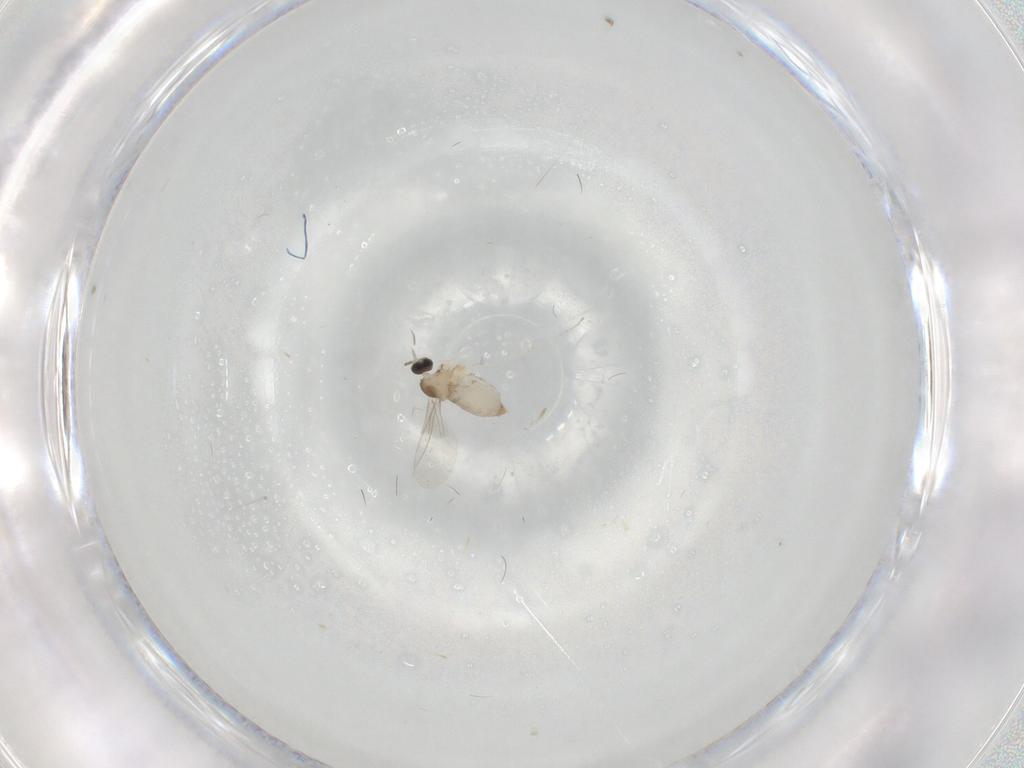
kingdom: Animalia
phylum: Arthropoda
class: Insecta
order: Diptera
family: Cecidomyiidae
